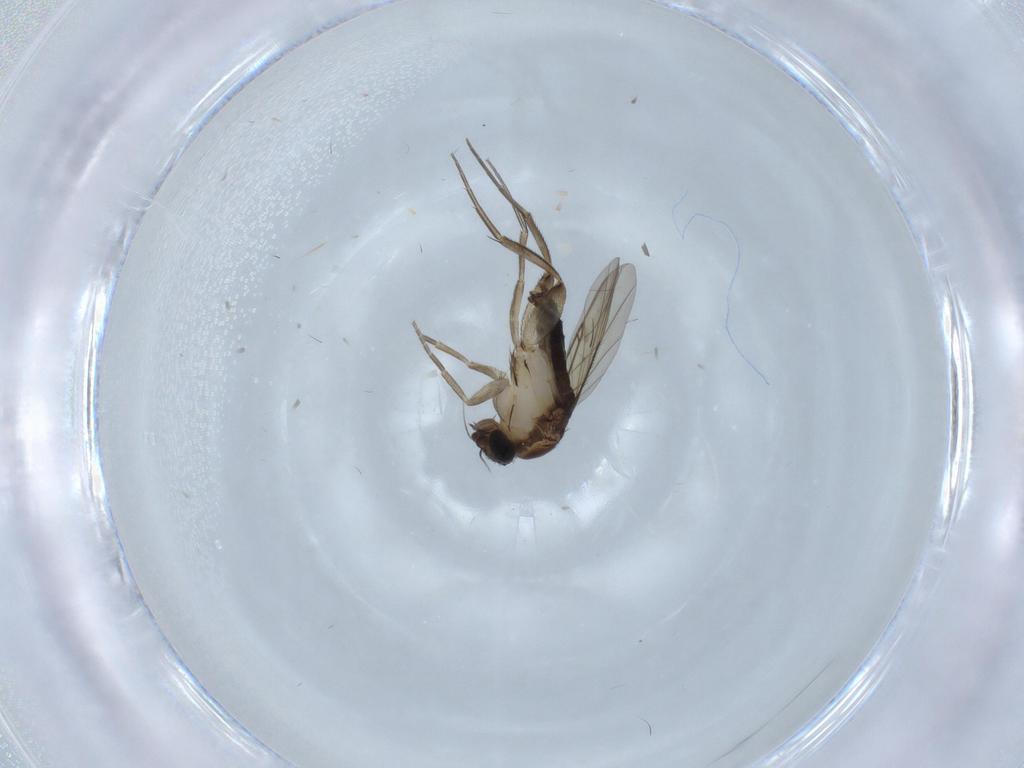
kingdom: Animalia
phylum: Arthropoda
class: Insecta
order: Diptera
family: Phoridae
